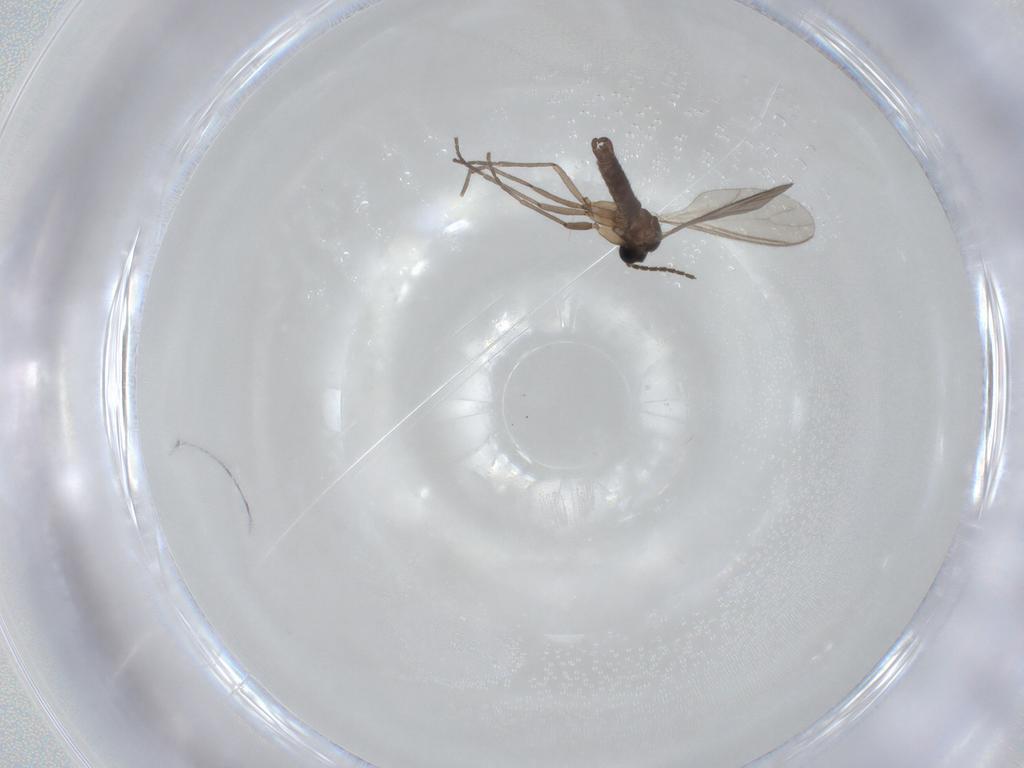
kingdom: Animalia
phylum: Arthropoda
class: Insecta
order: Diptera
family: Sciaridae
